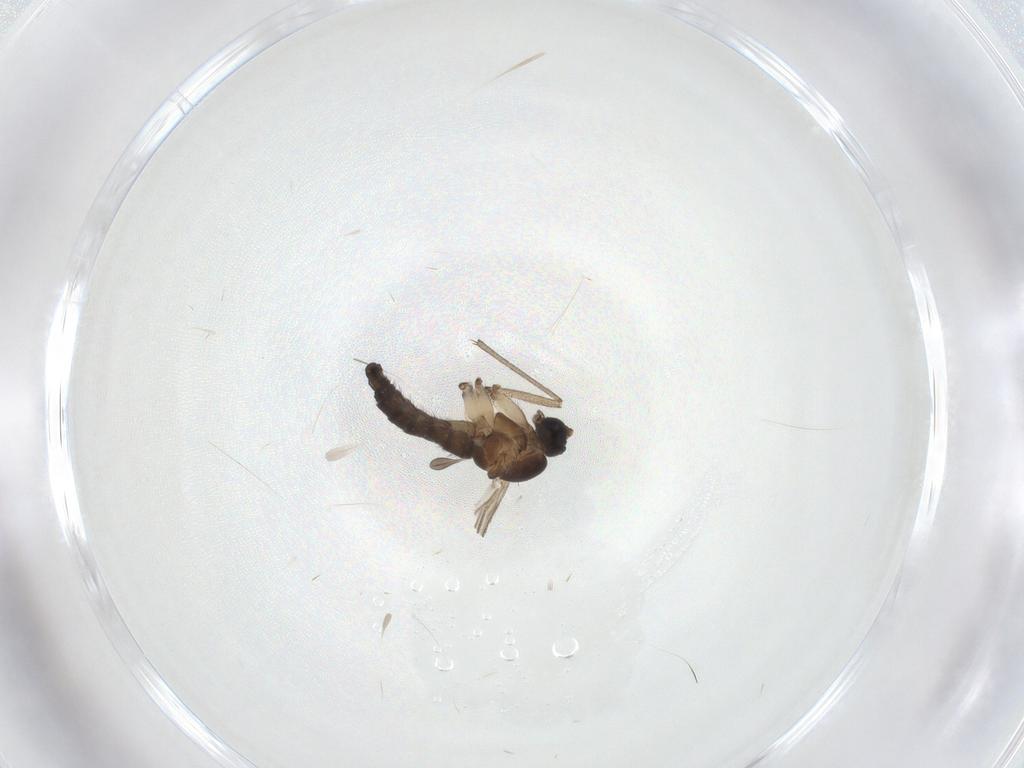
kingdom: Animalia
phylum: Arthropoda
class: Insecta
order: Diptera
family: Sciaridae
